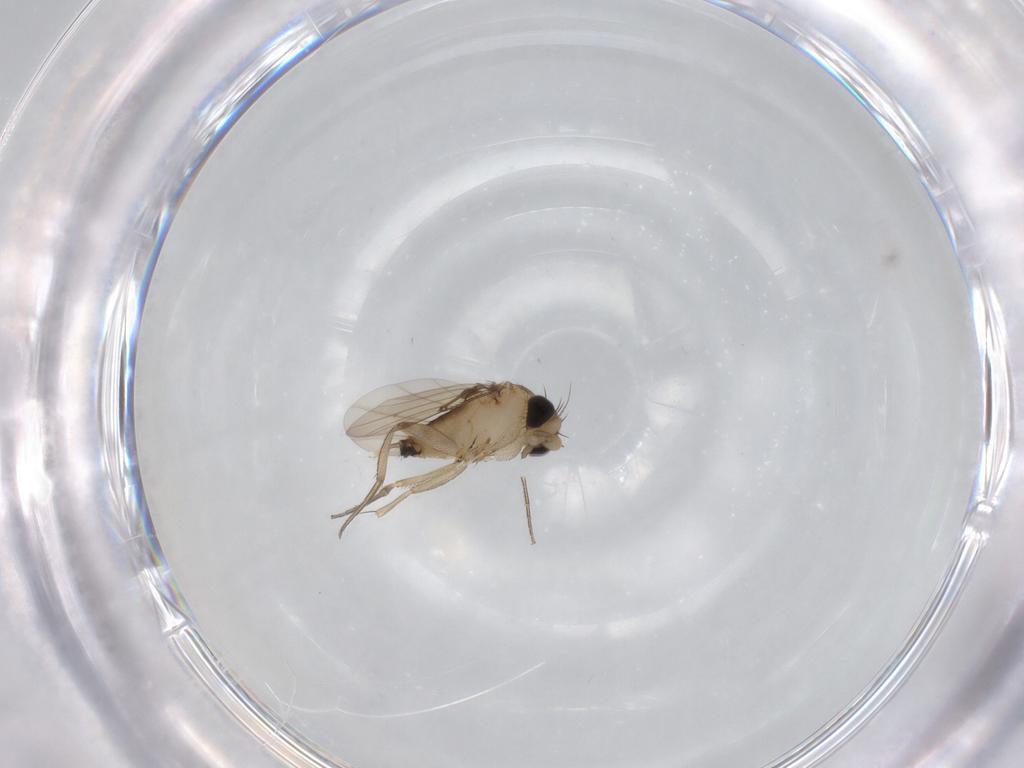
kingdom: Animalia
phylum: Arthropoda
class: Insecta
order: Diptera
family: Phoridae
